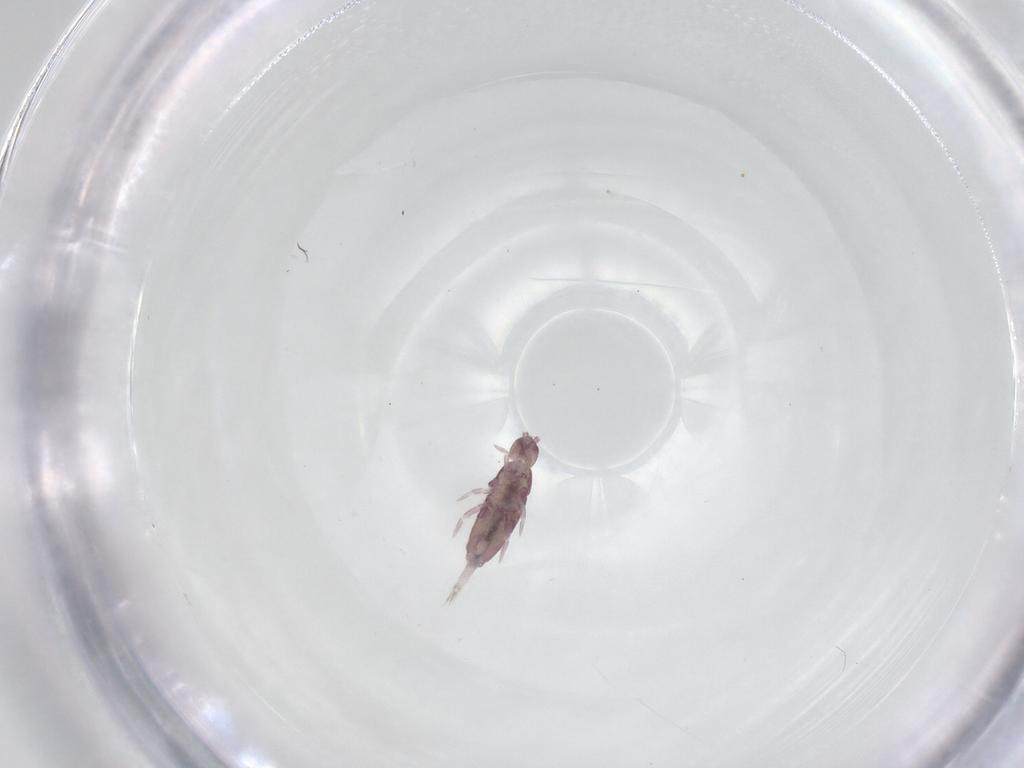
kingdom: Animalia
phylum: Arthropoda
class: Collembola
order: Entomobryomorpha
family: Entomobryidae
